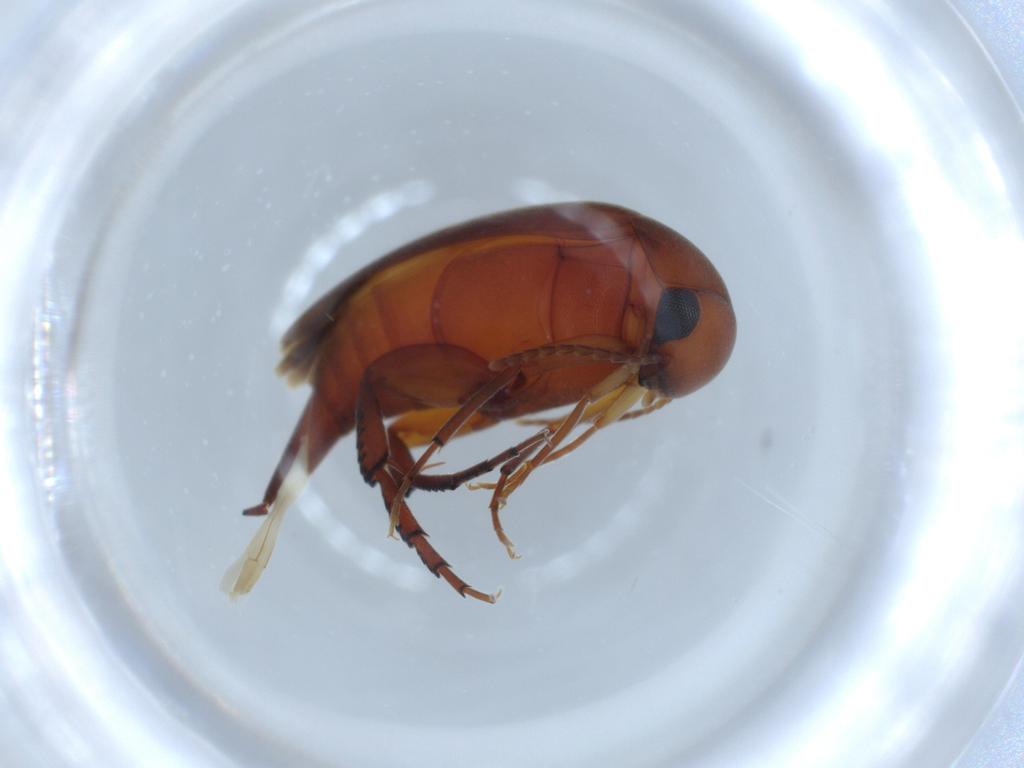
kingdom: Animalia
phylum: Arthropoda
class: Insecta
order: Coleoptera
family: Mordellidae
